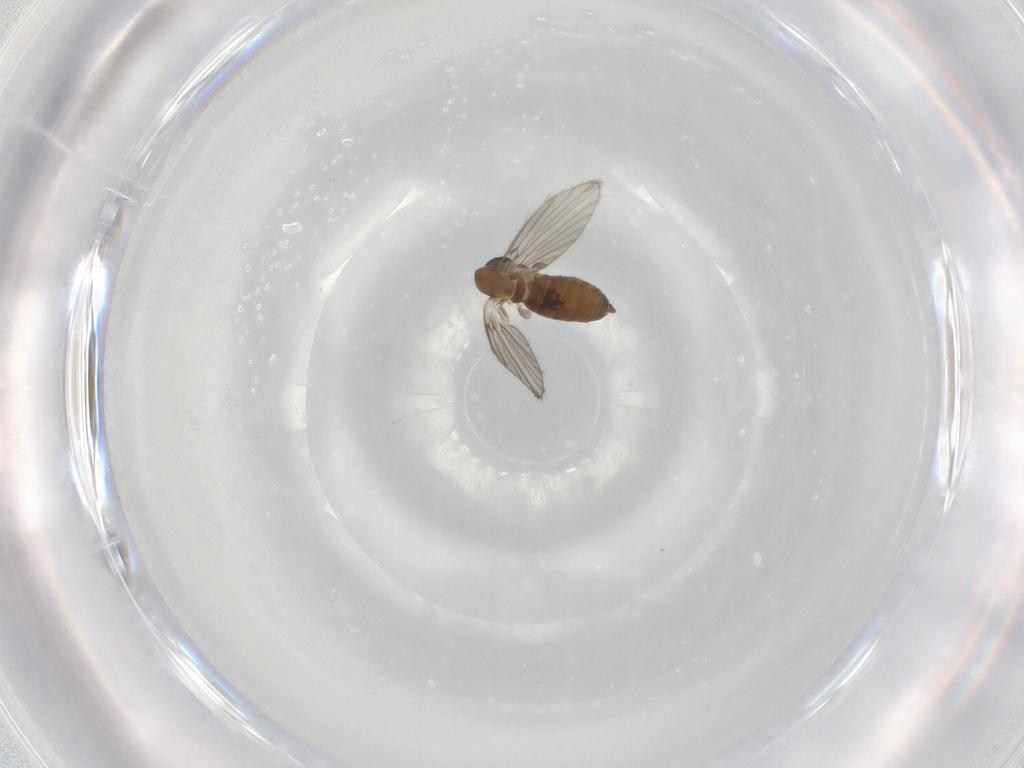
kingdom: Animalia
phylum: Arthropoda
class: Insecta
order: Diptera
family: Psychodidae
